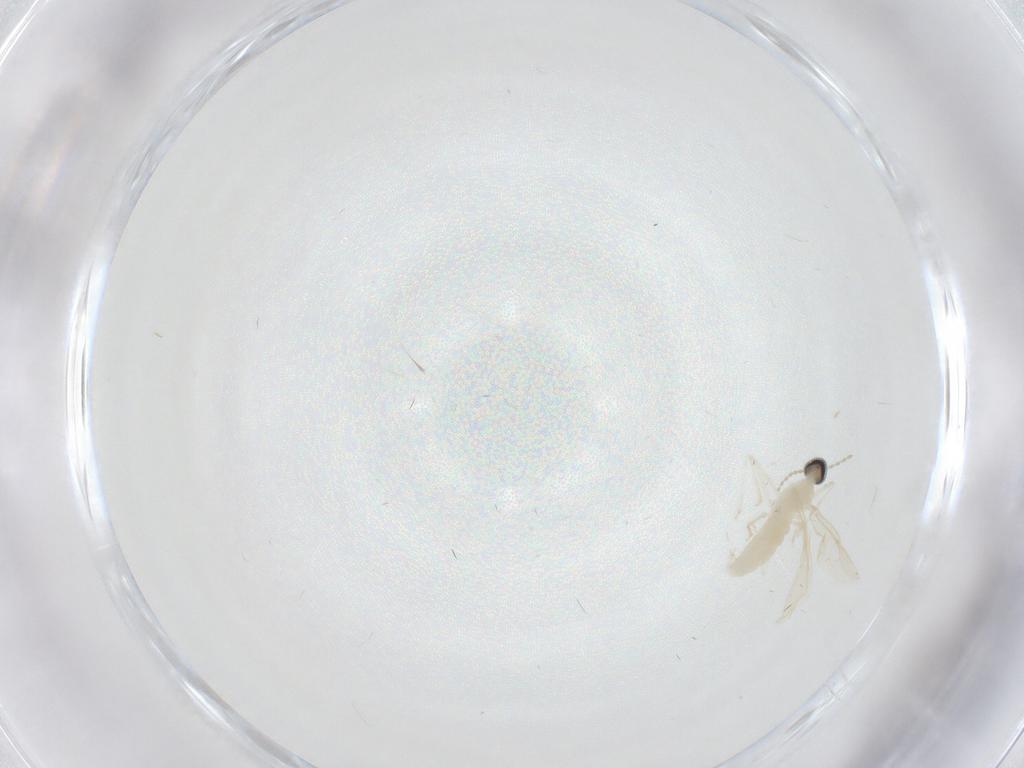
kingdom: Animalia
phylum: Arthropoda
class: Insecta
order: Diptera
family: Cecidomyiidae
